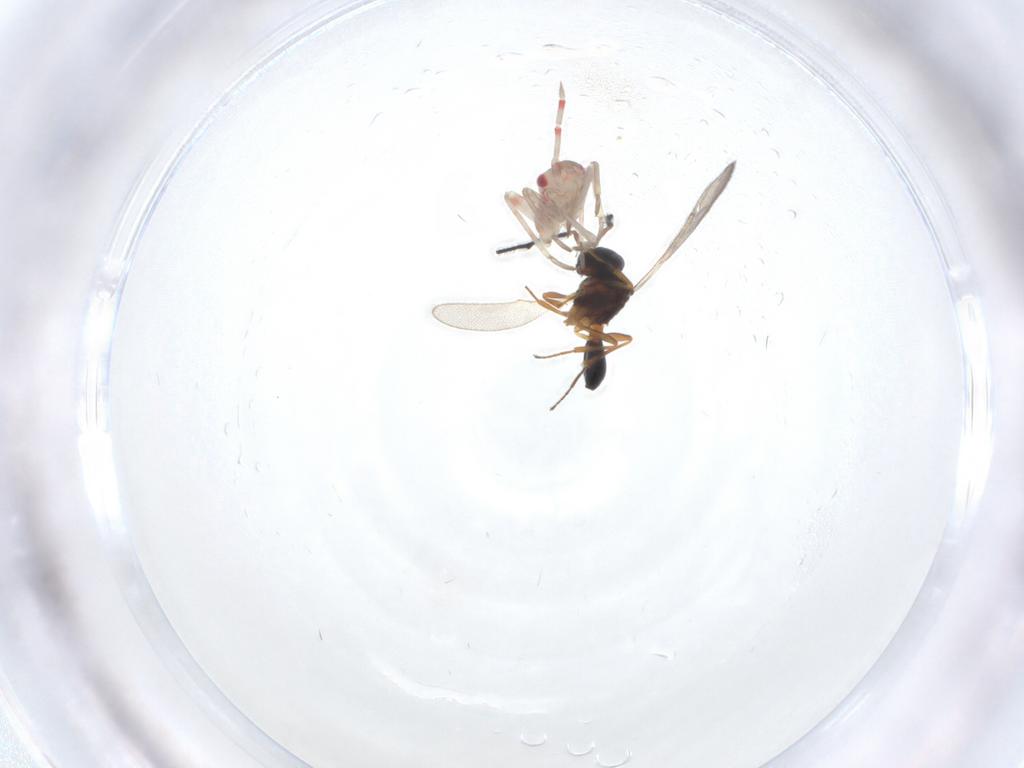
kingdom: Animalia
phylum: Arthropoda
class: Insecta
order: Hemiptera
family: Miridae
